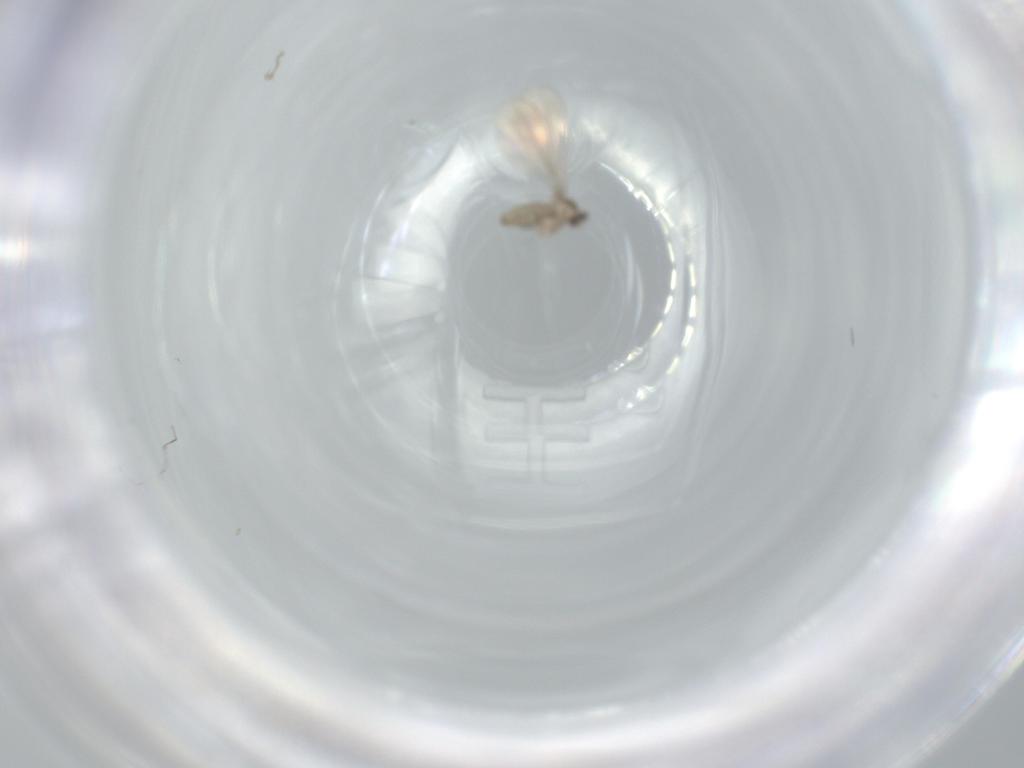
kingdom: Animalia
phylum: Arthropoda
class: Insecta
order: Diptera
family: Cecidomyiidae
